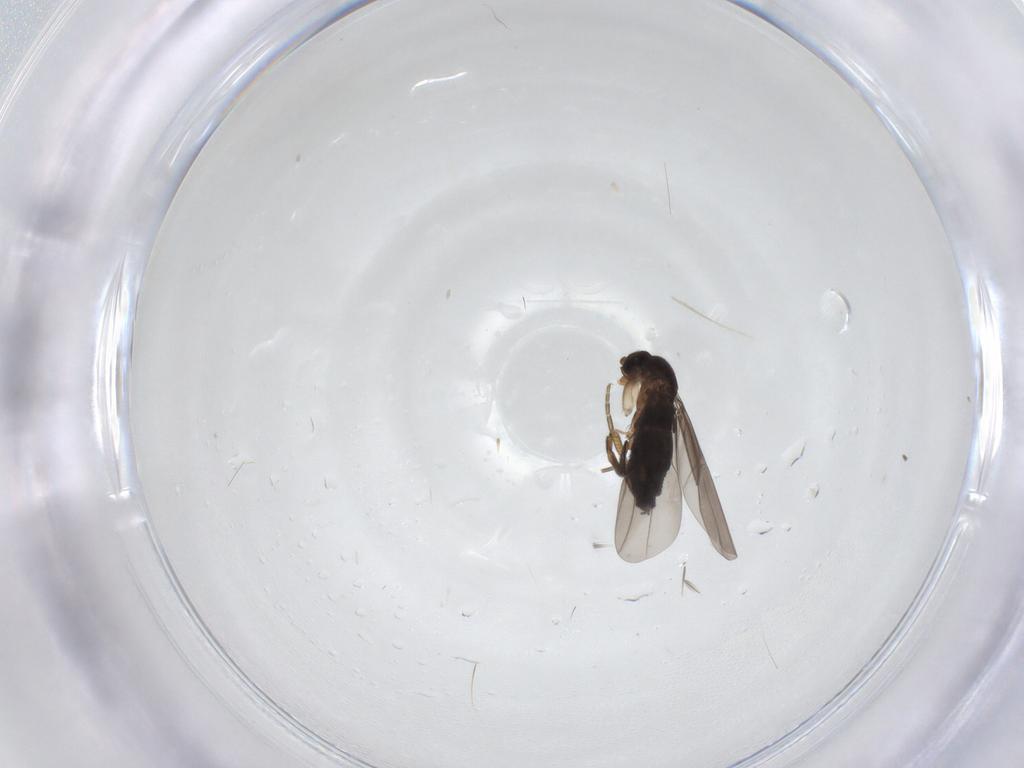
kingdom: Animalia
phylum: Arthropoda
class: Insecta
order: Diptera
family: Phoridae
